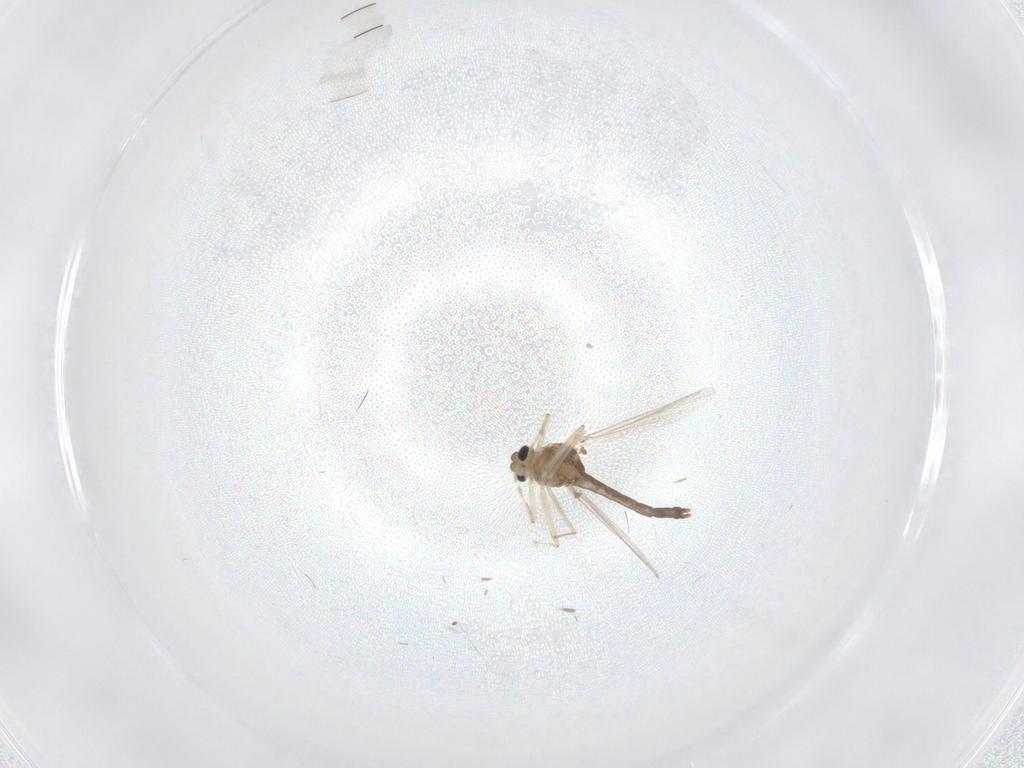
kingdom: Animalia
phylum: Arthropoda
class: Insecta
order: Diptera
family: Chironomidae
